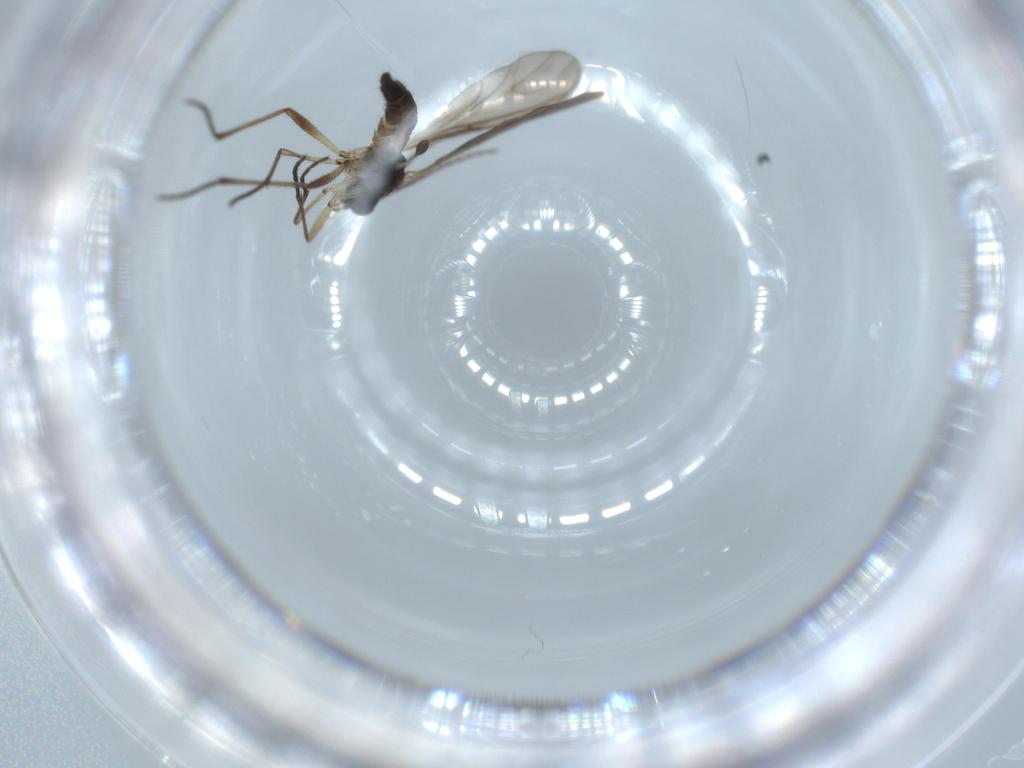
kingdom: Animalia
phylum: Arthropoda
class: Insecta
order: Diptera
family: Sciaridae
